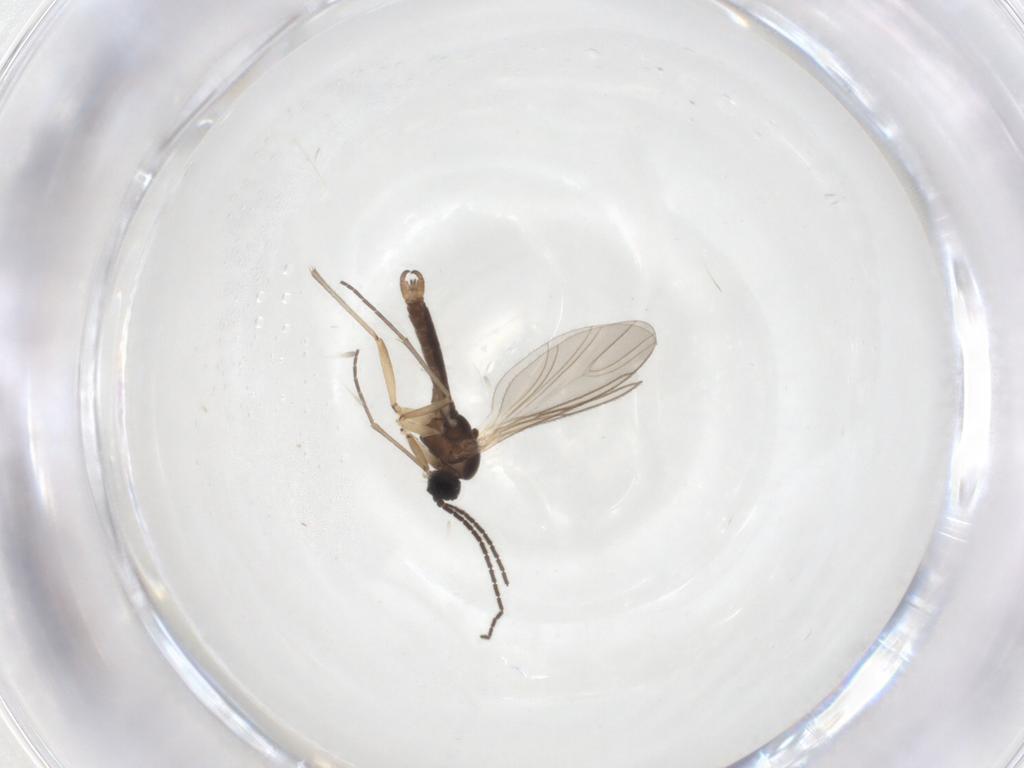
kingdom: Animalia
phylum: Arthropoda
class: Insecta
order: Diptera
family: Sciaridae
